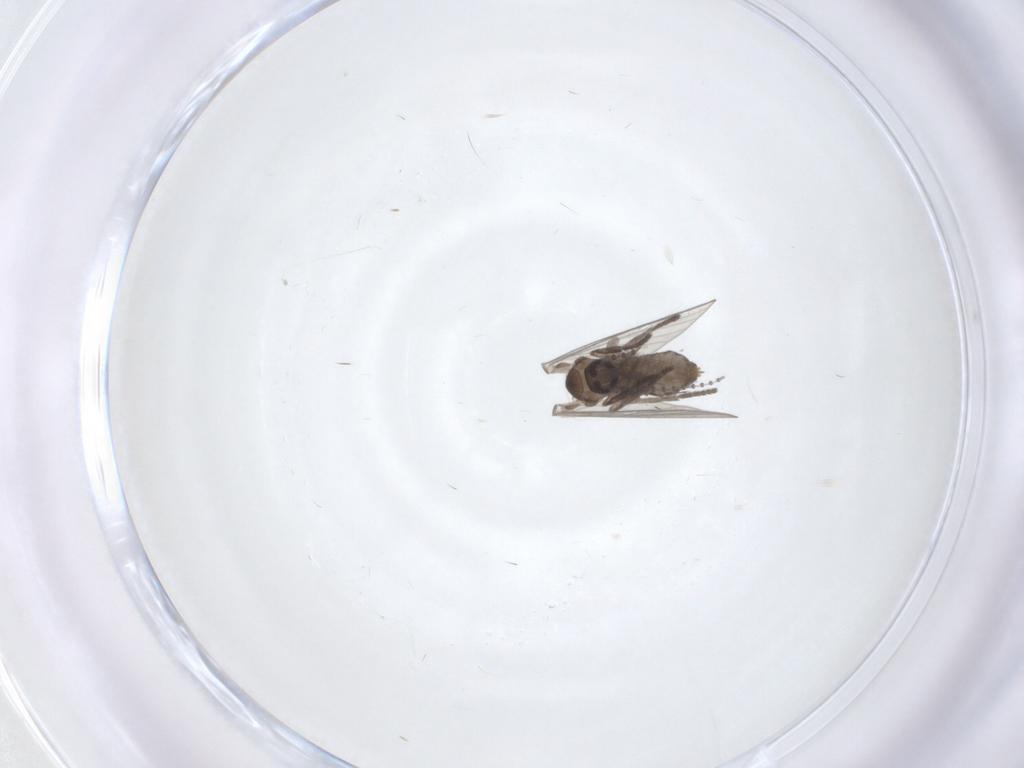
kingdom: Animalia
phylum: Arthropoda
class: Insecta
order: Diptera
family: Psychodidae
